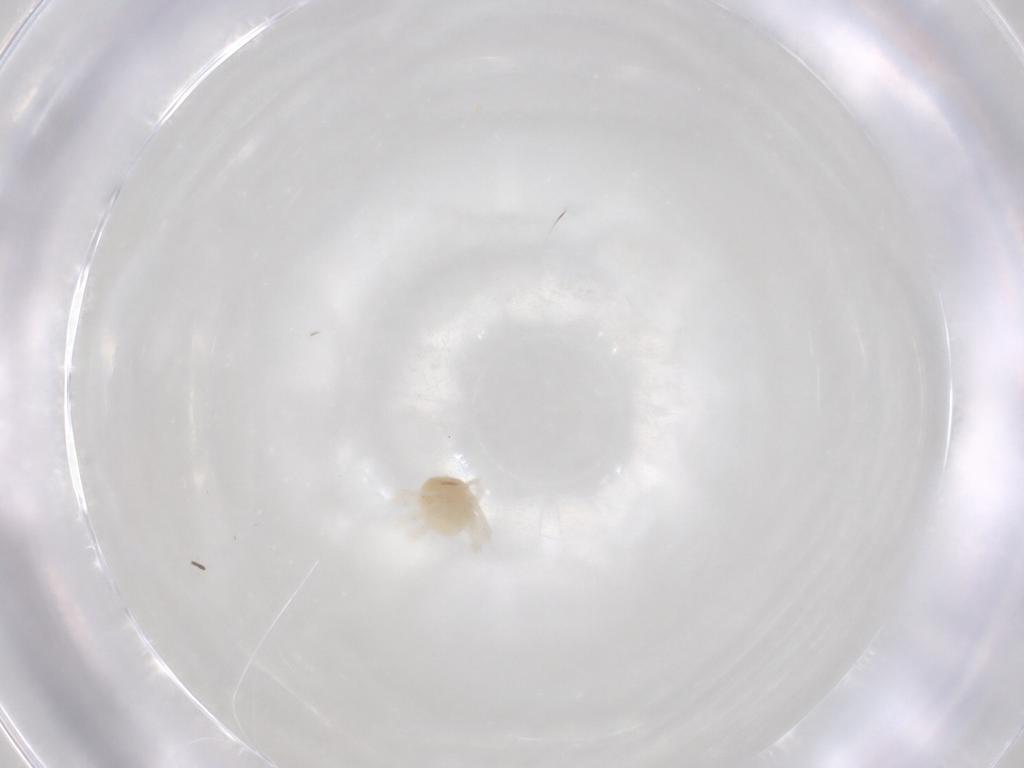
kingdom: Animalia
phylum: Arthropoda
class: Arachnida
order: Trombidiformes
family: Anystidae
